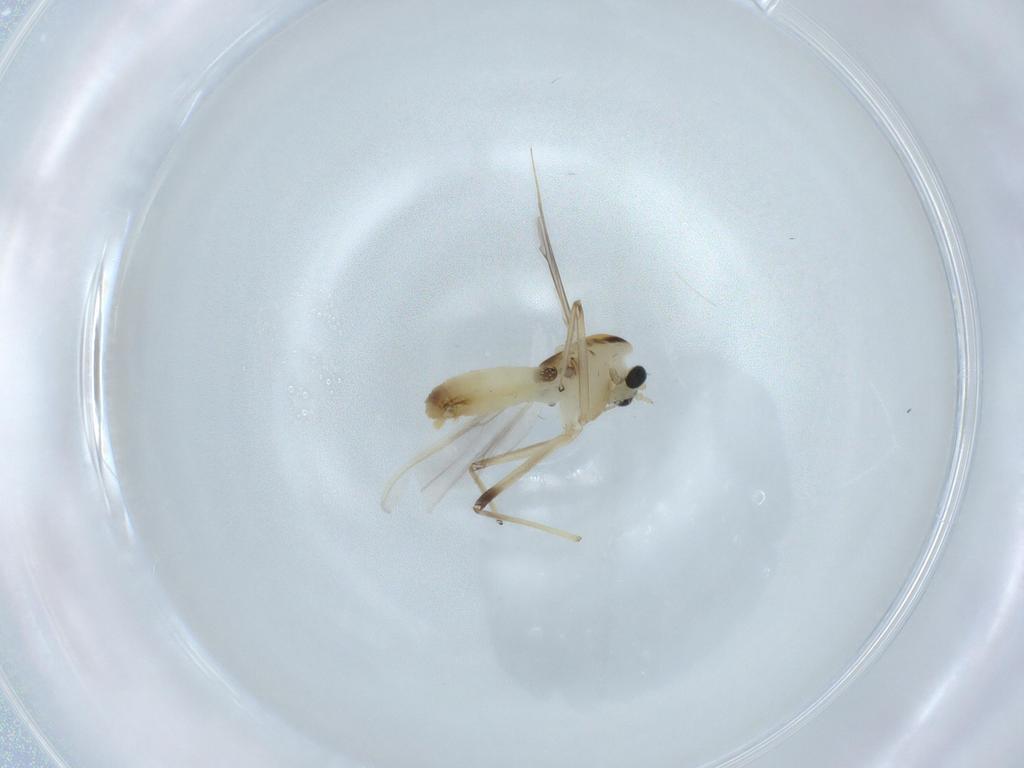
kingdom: Animalia
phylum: Arthropoda
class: Insecta
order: Diptera
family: Chironomidae
